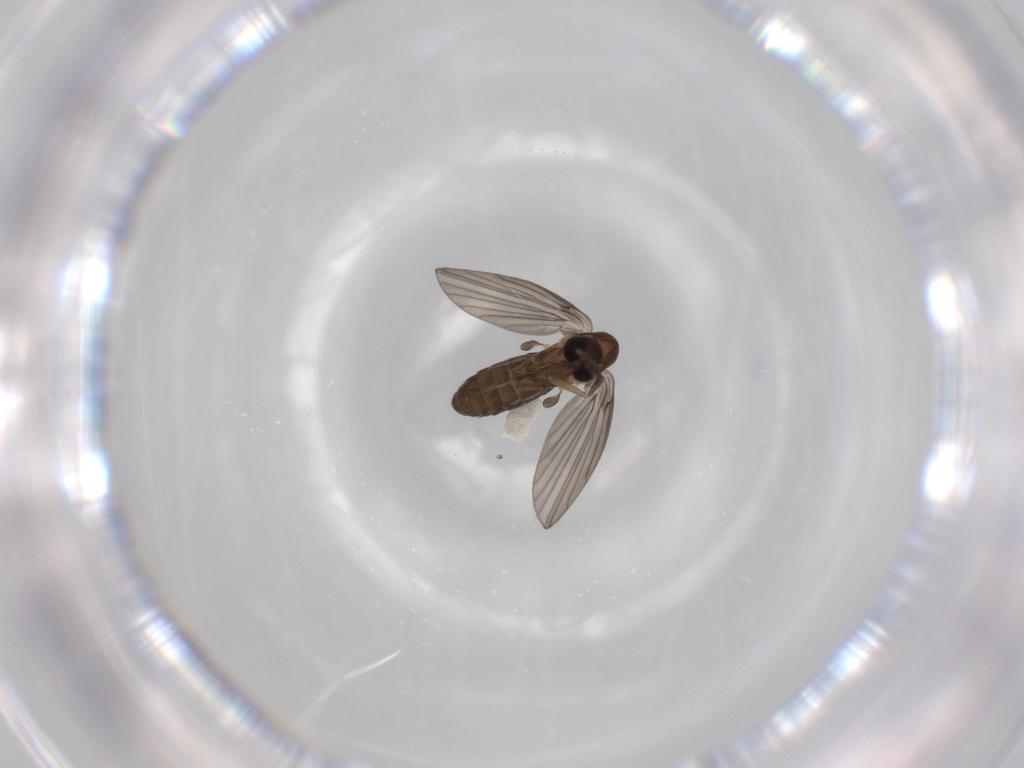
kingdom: Animalia
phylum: Arthropoda
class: Insecta
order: Diptera
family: Psychodidae
